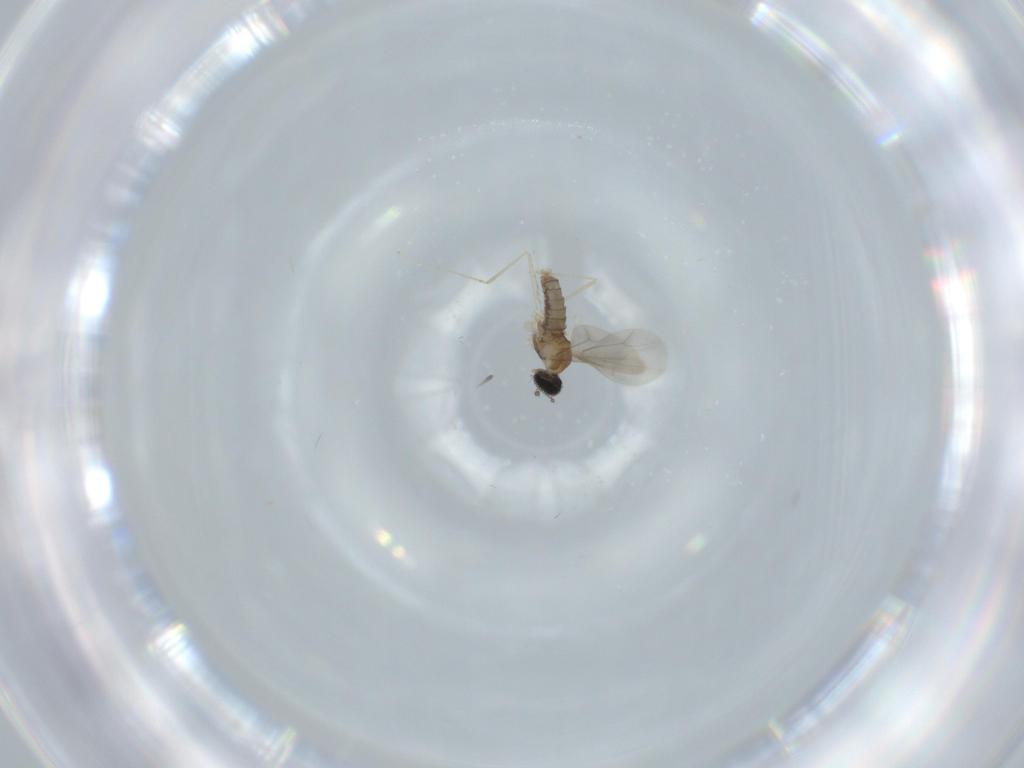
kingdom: Animalia
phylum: Arthropoda
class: Insecta
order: Diptera
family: Cecidomyiidae
